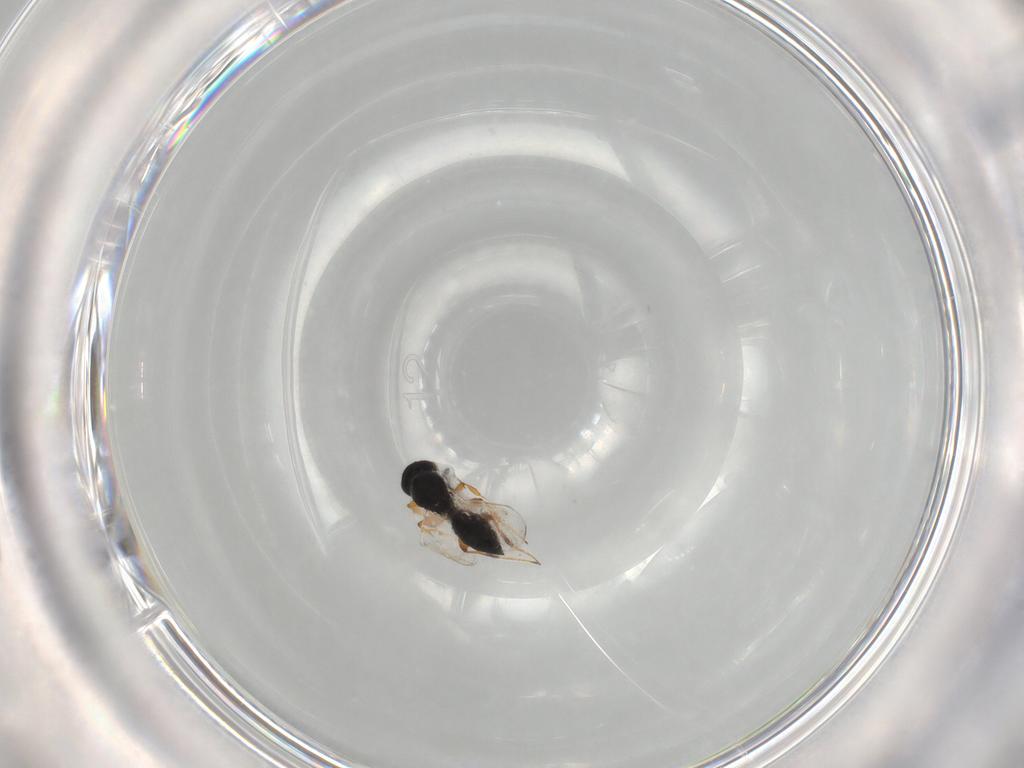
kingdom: Animalia
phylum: Arthropoda
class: Insecta
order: Hymenoptera
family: Platygastridae
